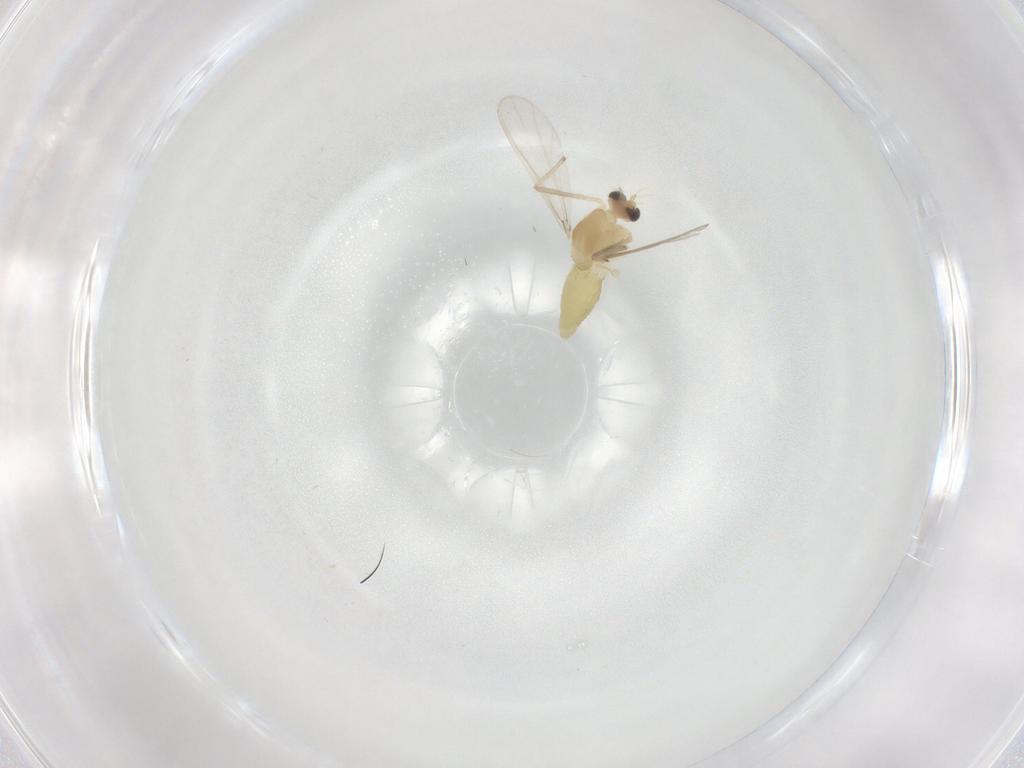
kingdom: Animalia
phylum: Arthropoda
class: Insecta
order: Diptera
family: Chironomidae
